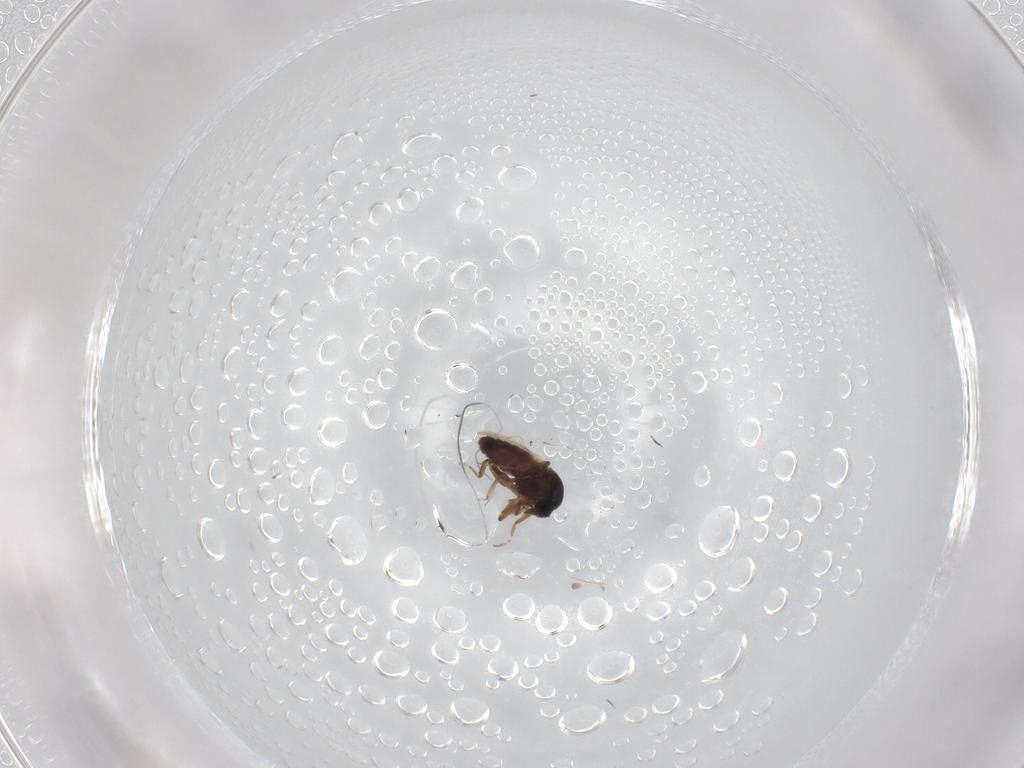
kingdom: Animalia
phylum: Arthropoda
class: Insecta
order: Diptera
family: Ceratopogonidae
